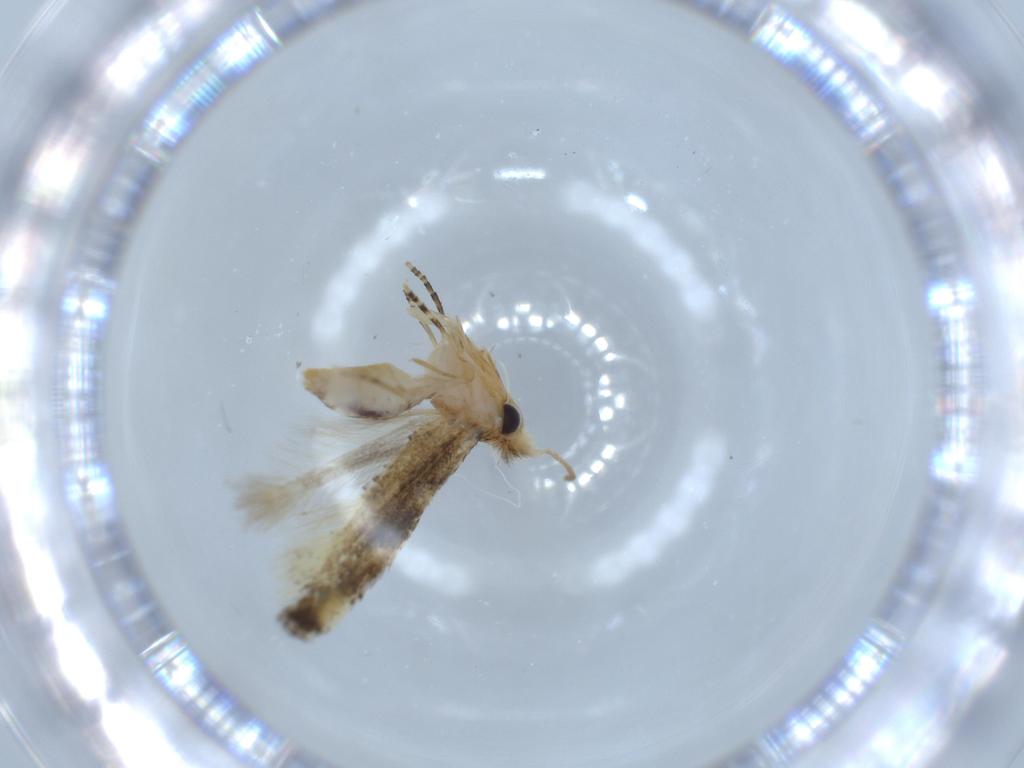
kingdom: Animalia
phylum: Arthropoda
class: Insecta
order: Lepidoptera
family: Bucculatricidae
